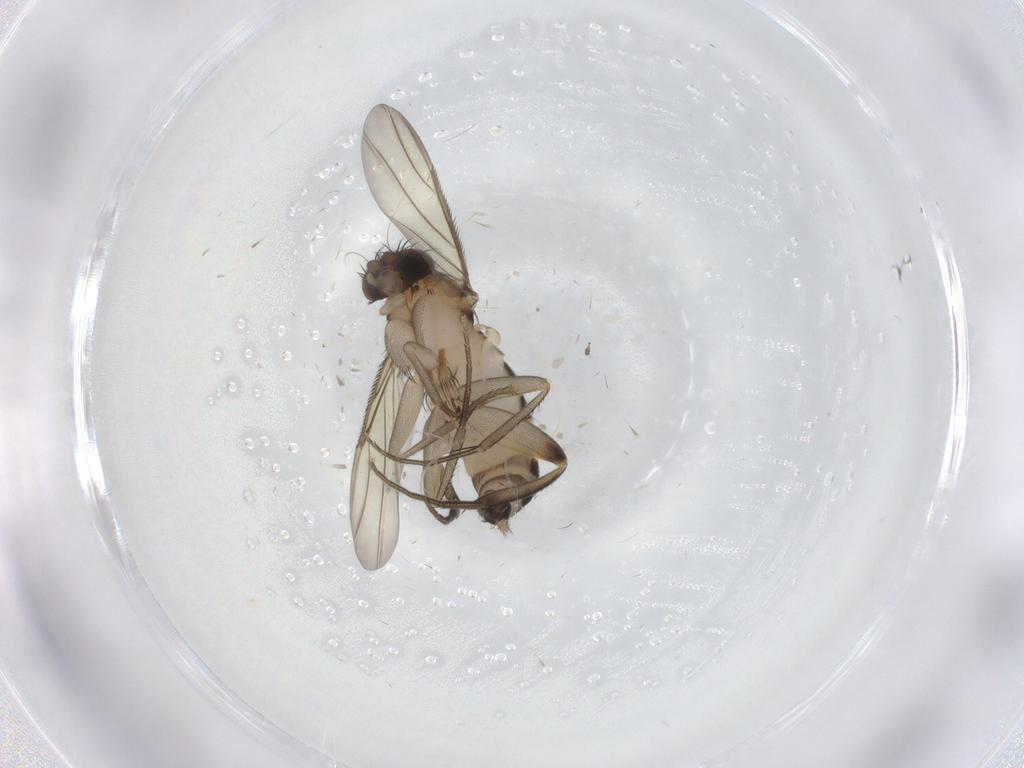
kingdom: Animalia
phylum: Arthropoda
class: Insecta
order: Diptera
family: Phoridae
